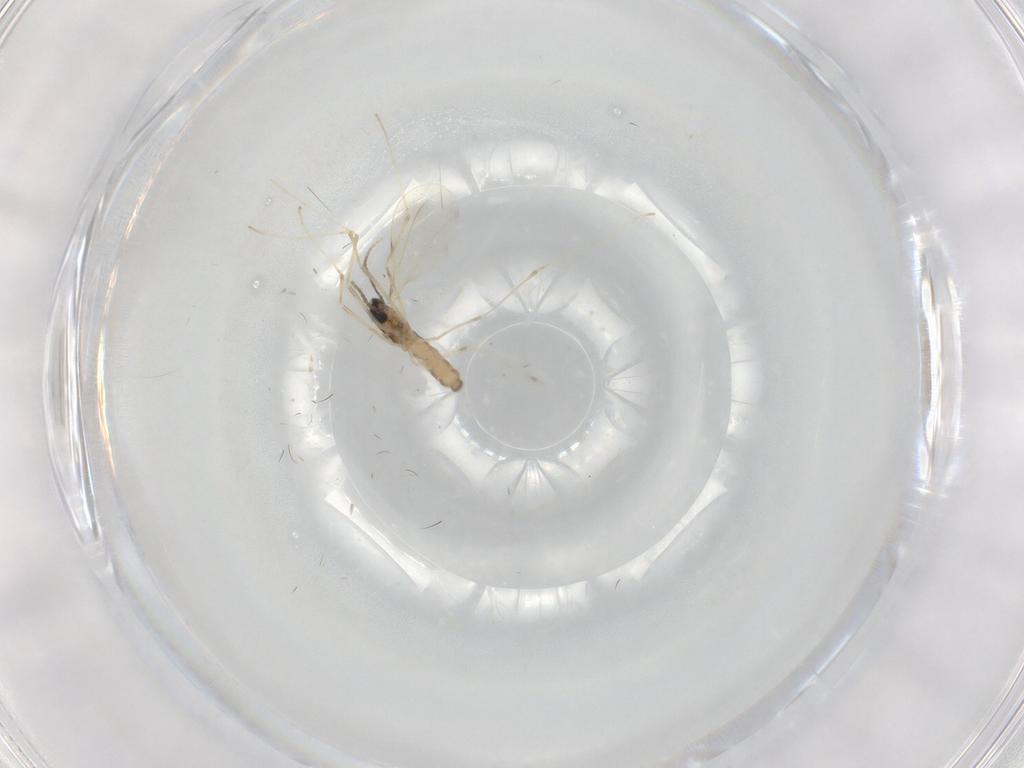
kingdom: Animalia
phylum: Arthropoda
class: Insecta
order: Diptera
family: Cecidomyiidae
